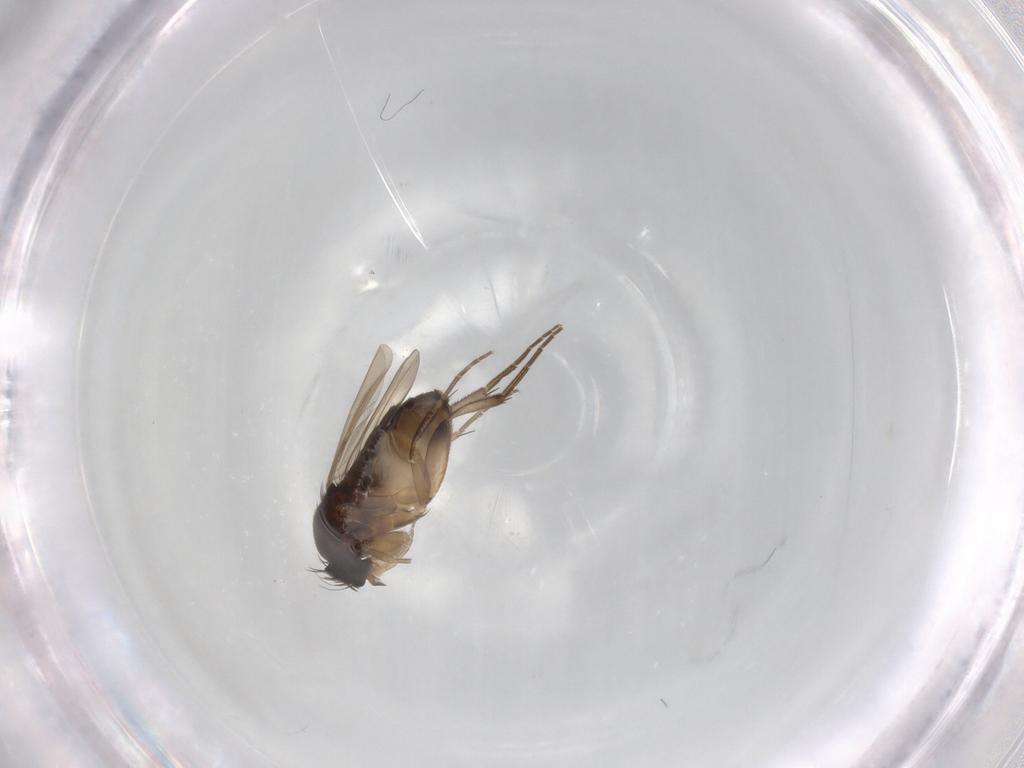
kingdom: Animalia
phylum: Arthropoda
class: Insecta
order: Diptera
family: Phoridae
